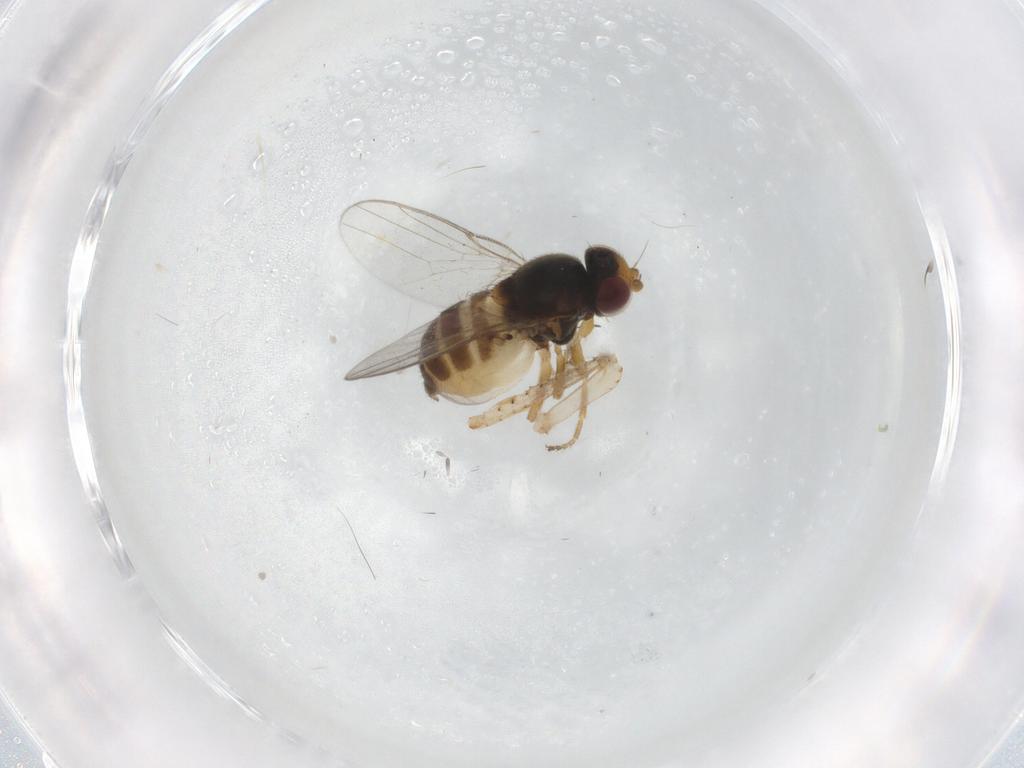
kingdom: Animalia
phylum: Arthropoda
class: Insecta
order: Diptera
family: Chloropidae
